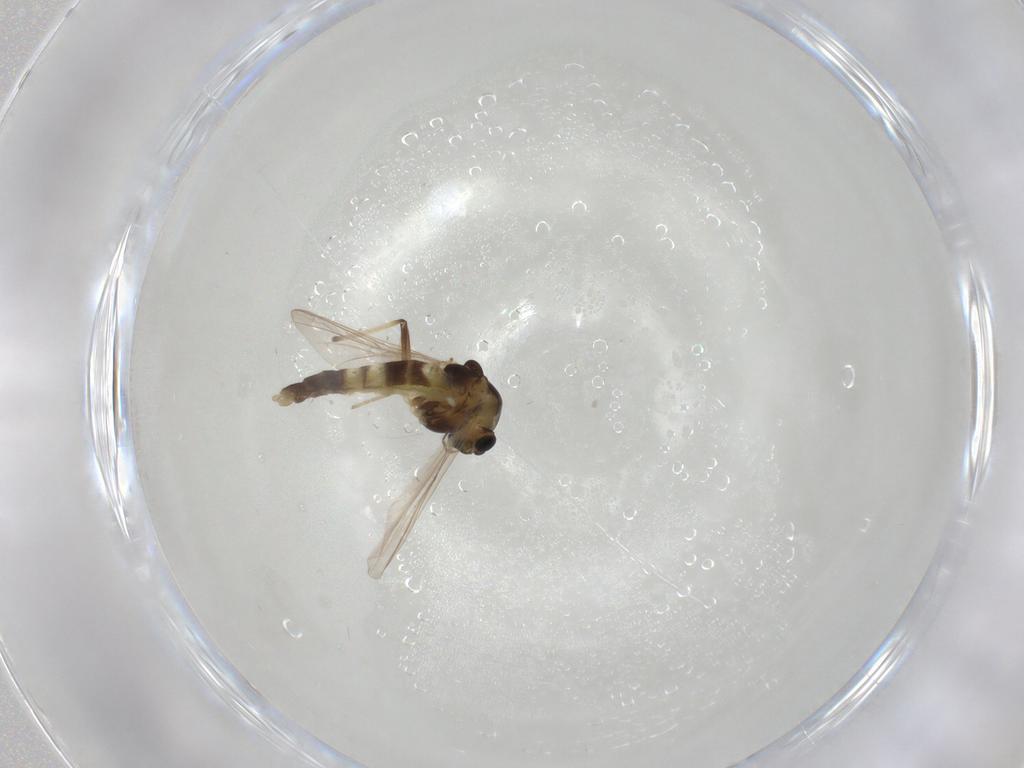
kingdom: Animalia
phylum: Arthropoda
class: Insecta
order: Diptera
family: Chironomidae
